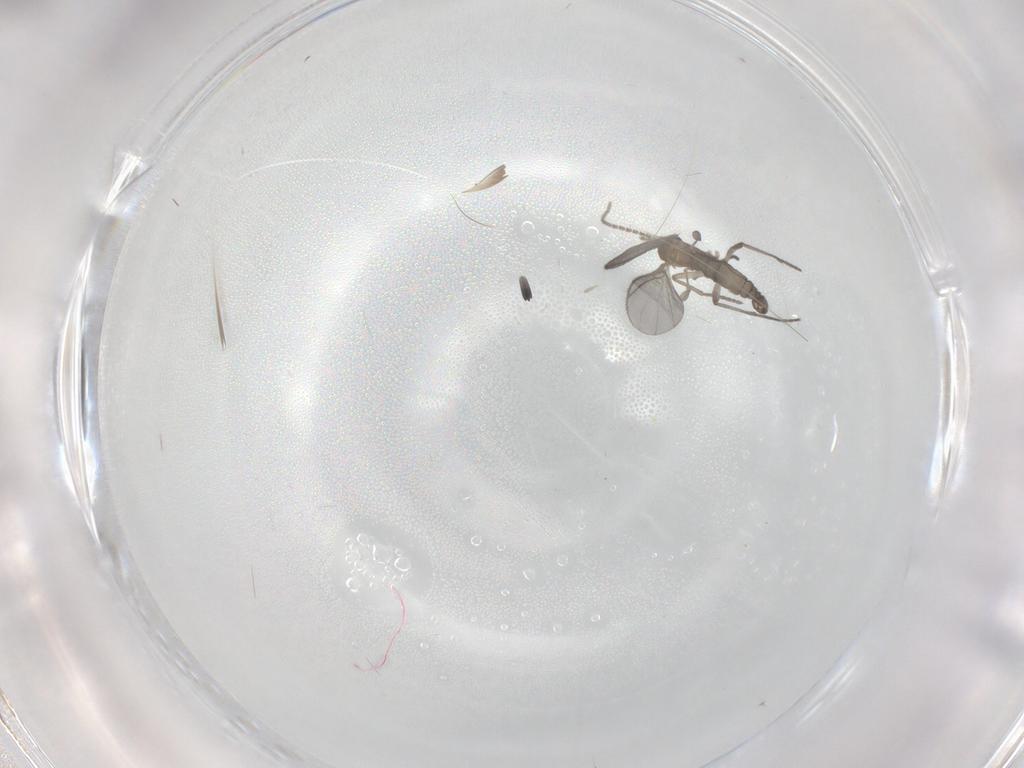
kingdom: Animalia
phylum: Arthropoda
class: Insecta
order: Diptera
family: Sciaridae
